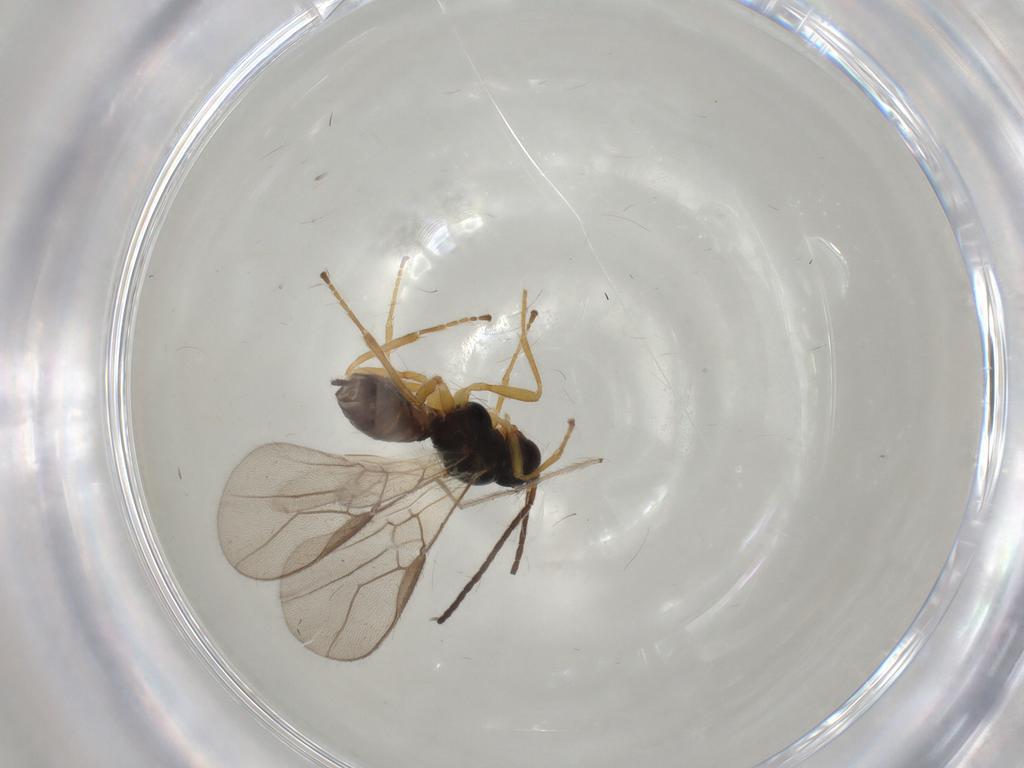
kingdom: Animalia
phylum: Arthropoda
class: Insecta
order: Hymenoptera
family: Braconidae
